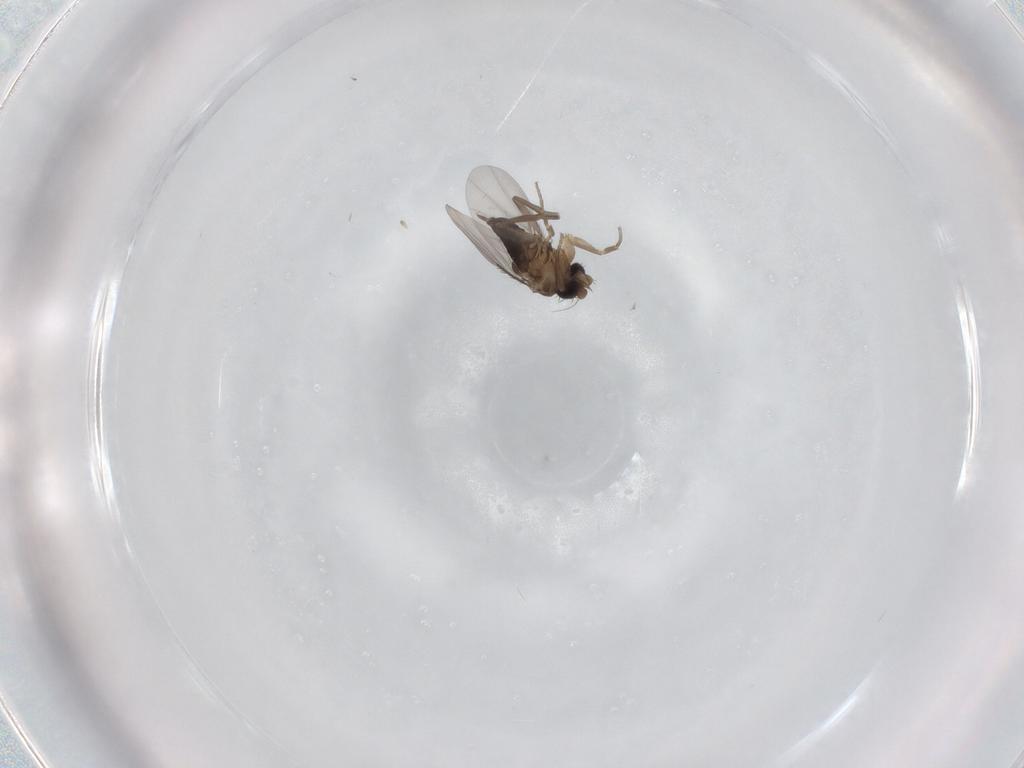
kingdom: Animalia
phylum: Arthropoda
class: Insecta
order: Diptera
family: Phoridae
